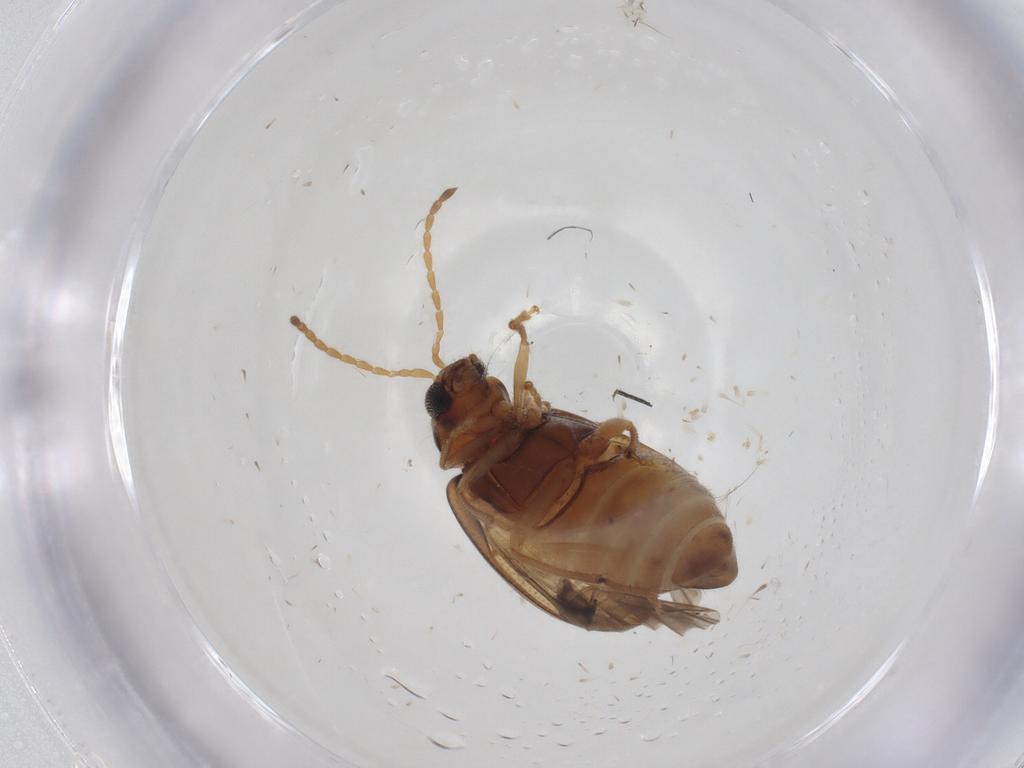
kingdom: Animalia
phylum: Arthropoda
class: Insecta
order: Coleoptera
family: Chrysomelidae
